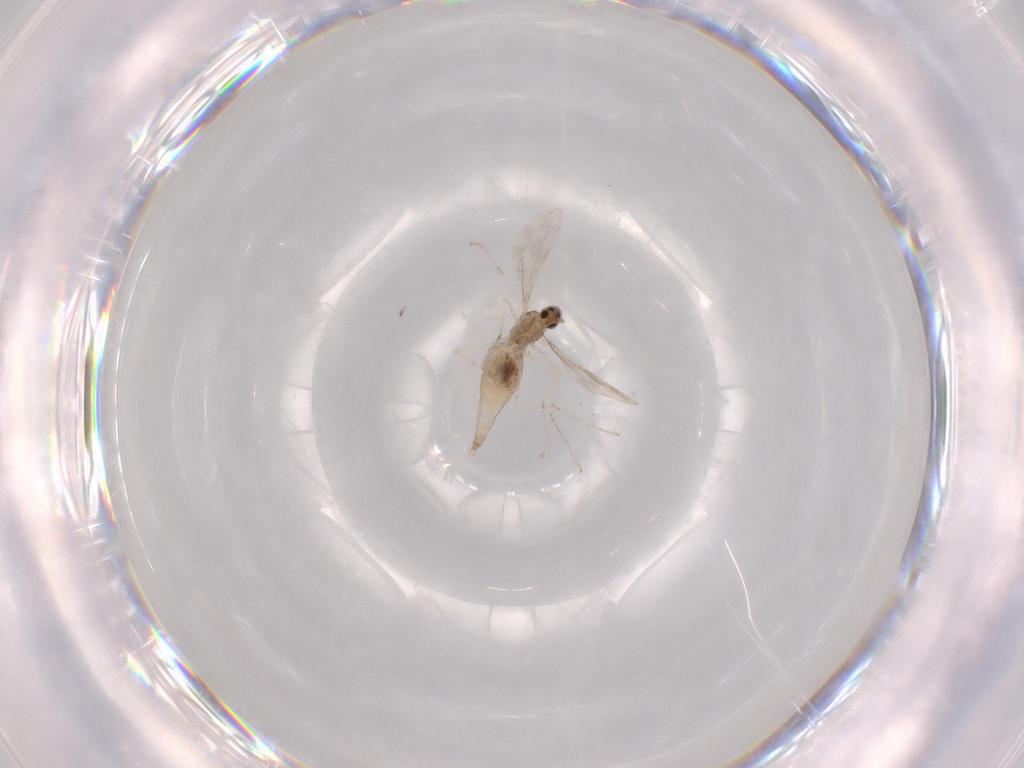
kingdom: Animalia
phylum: Arthropoda
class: Insecta
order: Diptera
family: Cecidomyiidae
